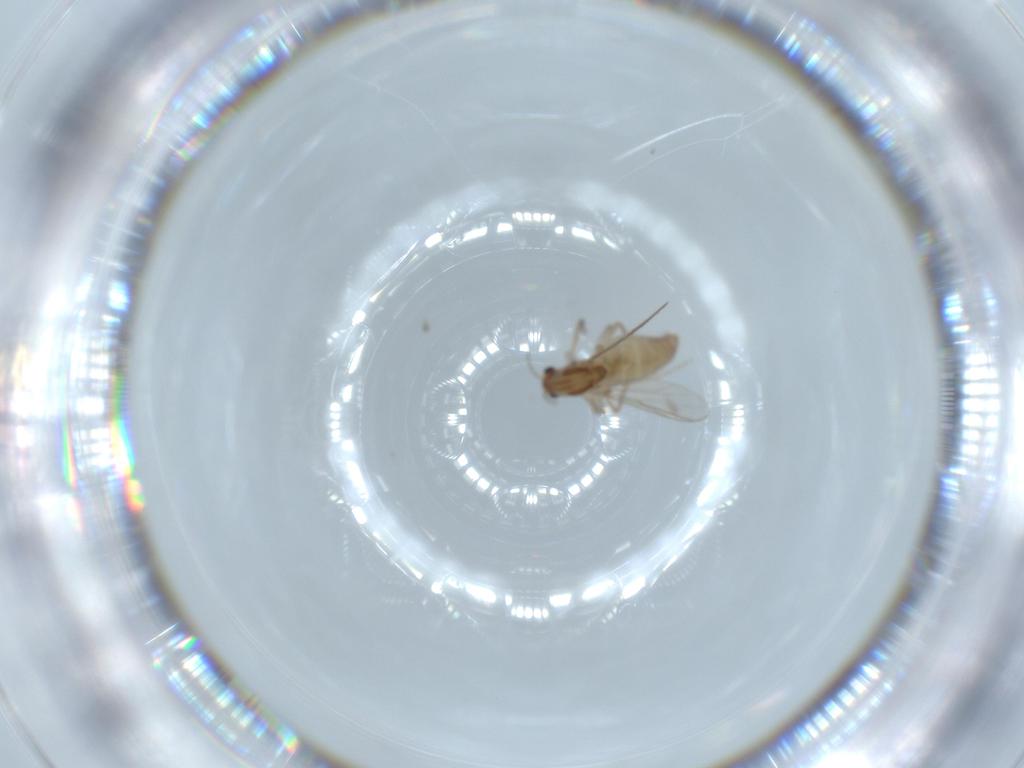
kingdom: Animalia
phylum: Arthropoda
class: Insecta
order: Diptera
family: Chironomidae
